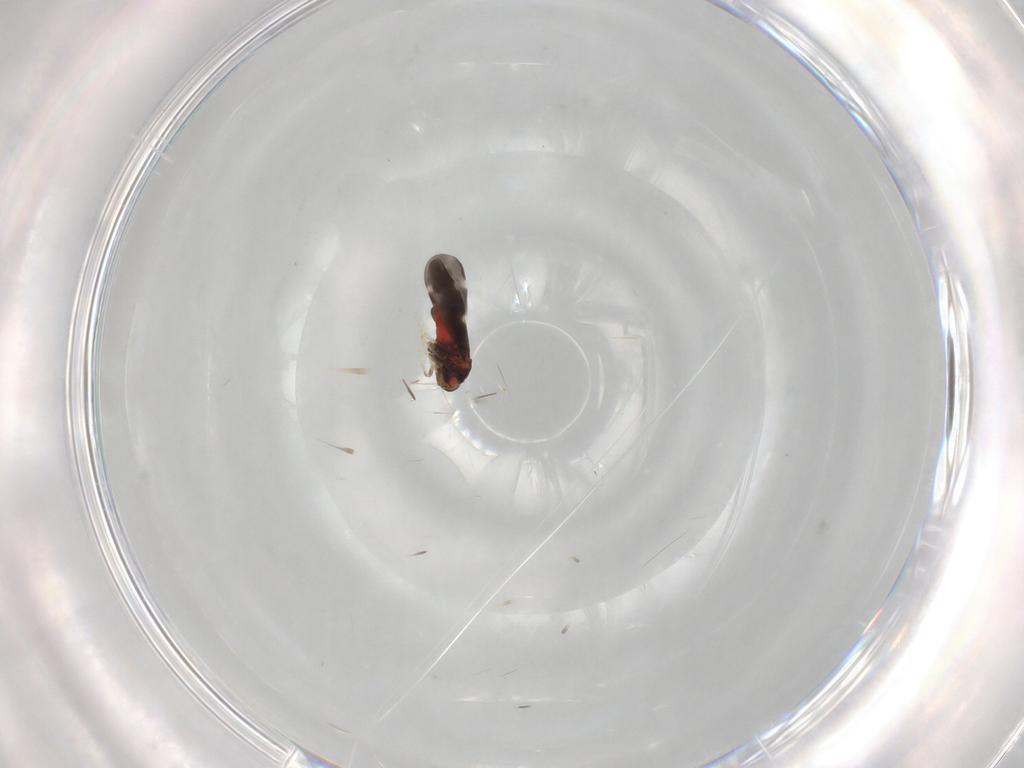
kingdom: Animalia
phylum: Arthropoda
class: Insecta
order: Hemiptera
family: Aleyrodidae
